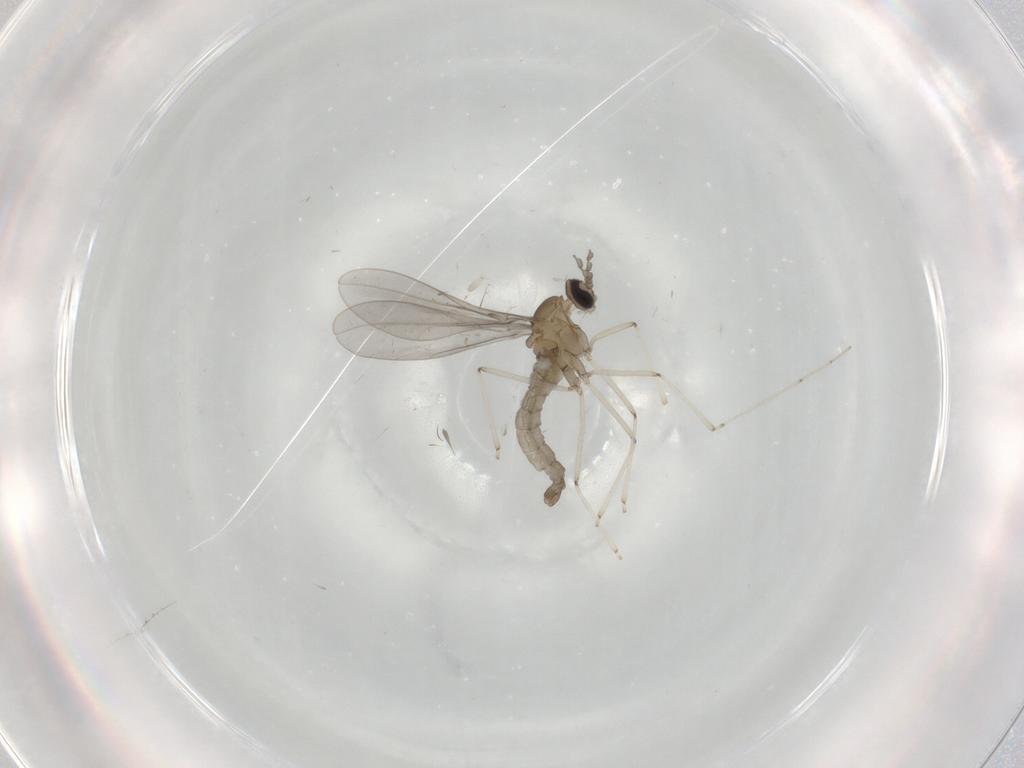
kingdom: Animalia
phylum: Arthropoda
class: Insecta
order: Diptera
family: Cecidomyiidae
